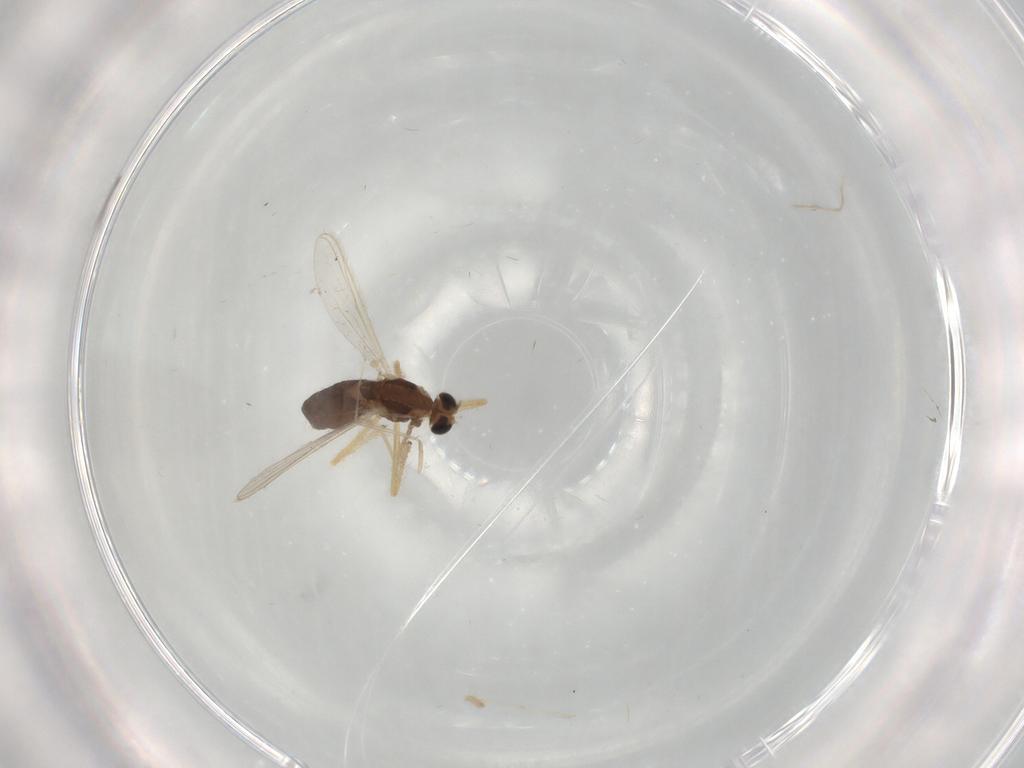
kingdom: Animalia
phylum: Arthropoda
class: Insecta
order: Diptera
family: Chironomidae
